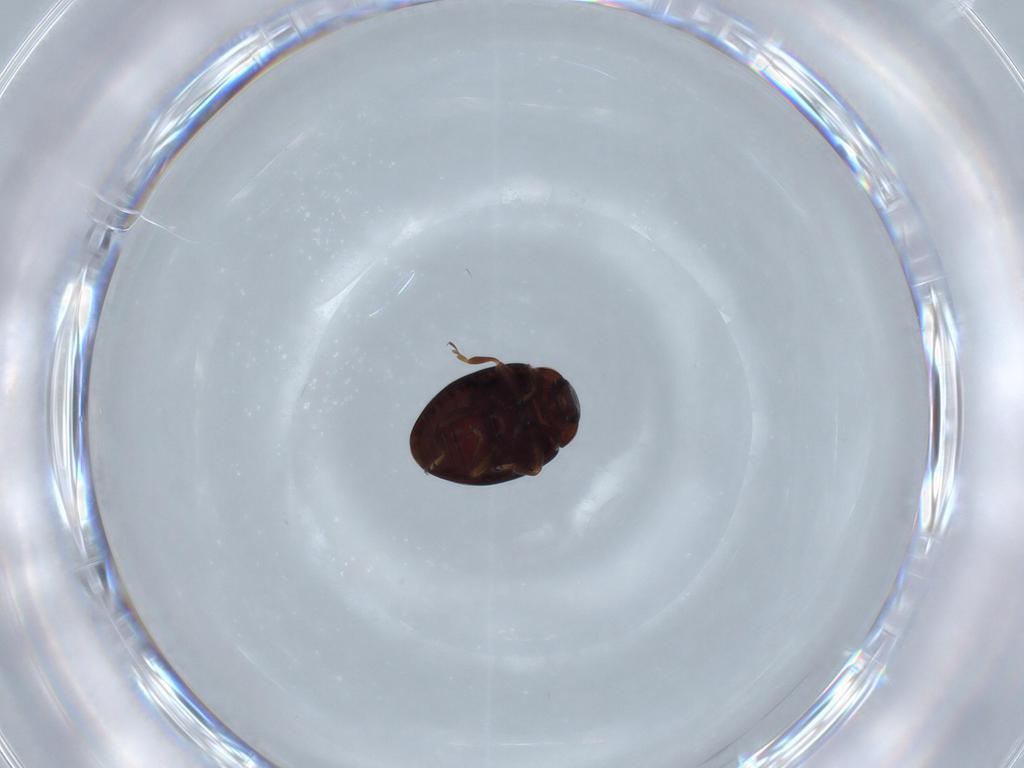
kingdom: Animalia
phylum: Arthropoda
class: Insecta
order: Coleoptera
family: Coccinellidae
